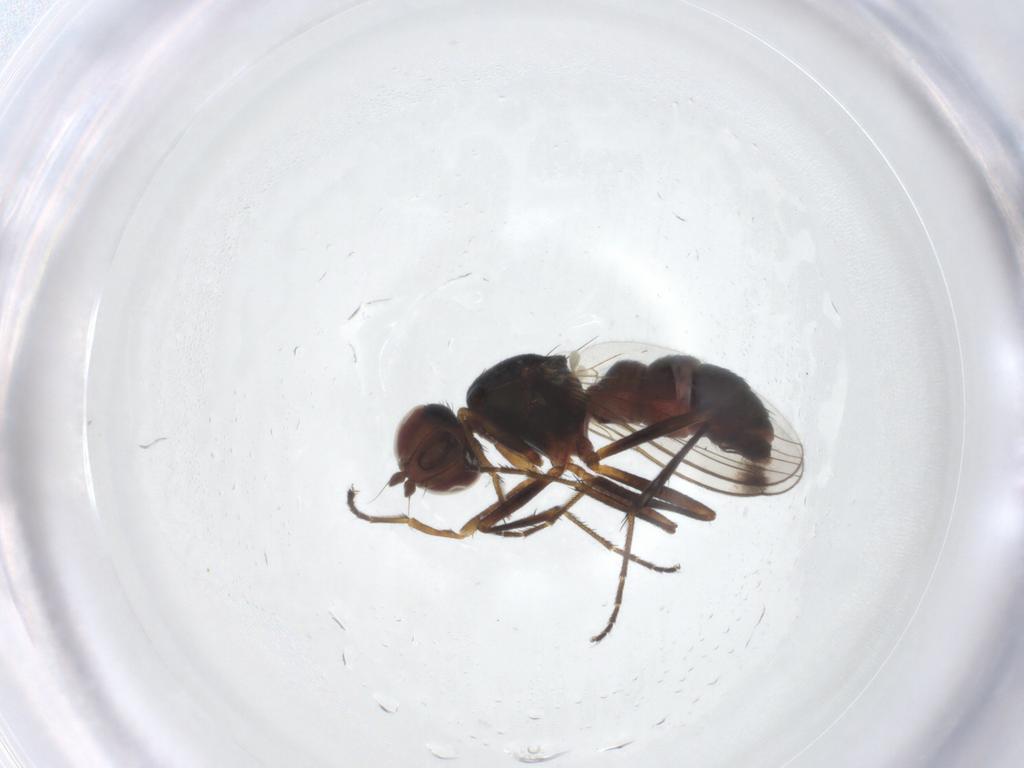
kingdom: Animalia
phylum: Arthropoda
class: Insecta
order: Diptera
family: Sepsidae
